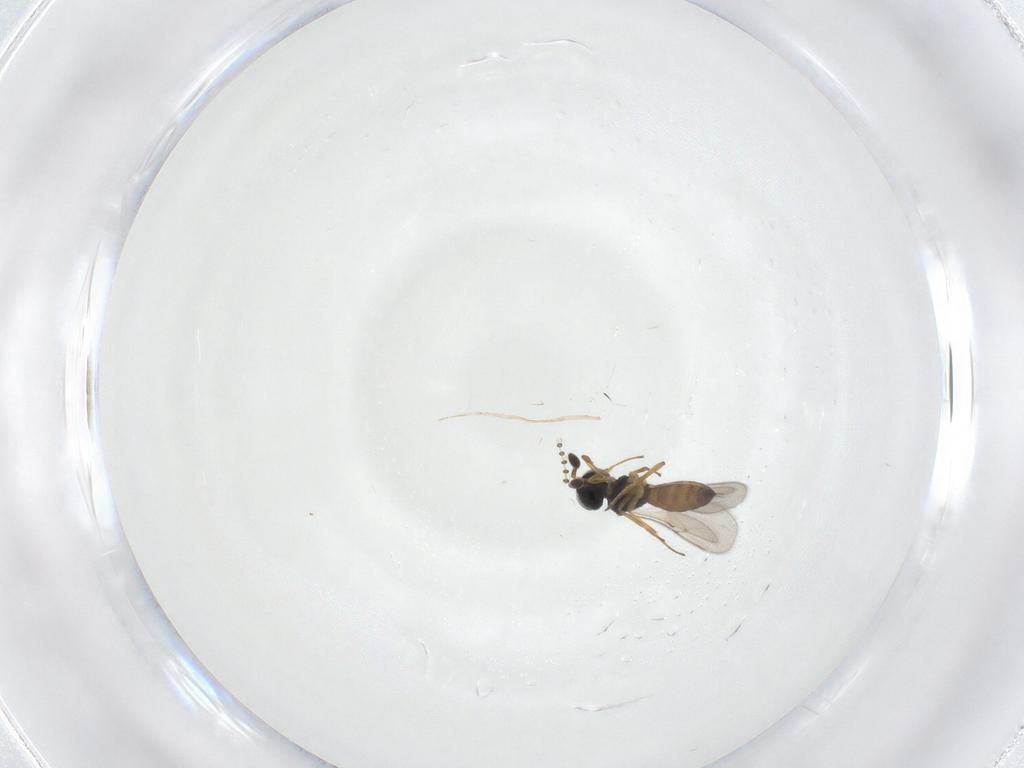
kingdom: Animalia
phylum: Arthropoda
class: Insecta
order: Hymenoptera
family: Scelionidae
